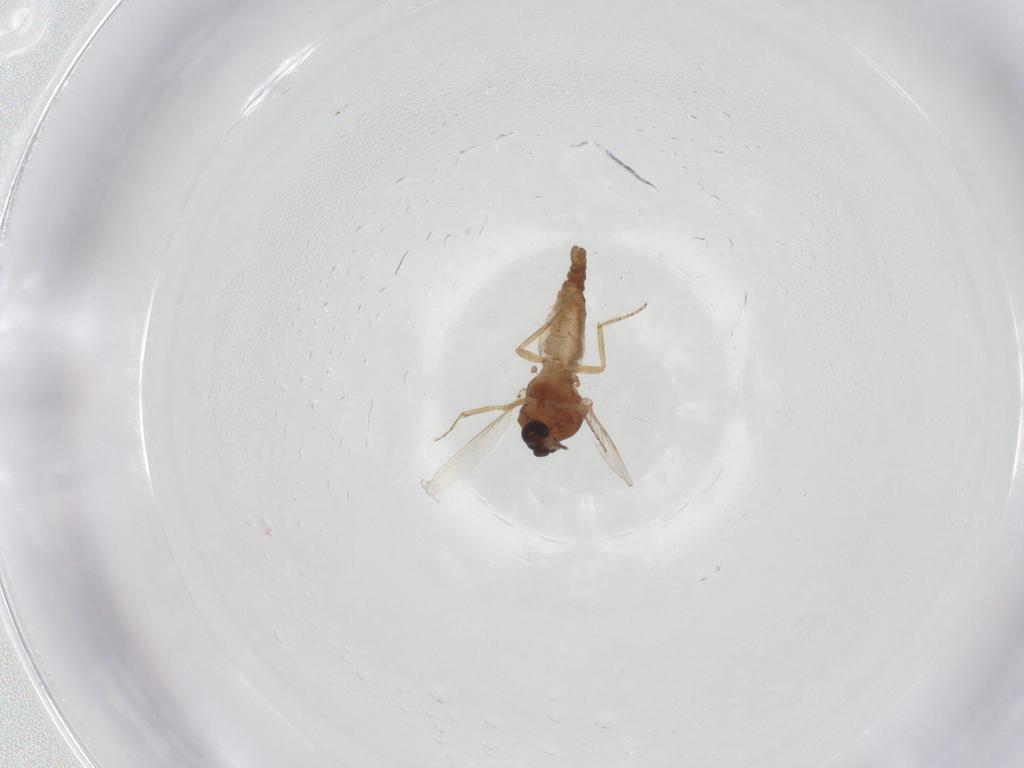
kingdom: Animalia
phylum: Arthropoda
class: Insecta
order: Diptera
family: Ceratopogonidae
